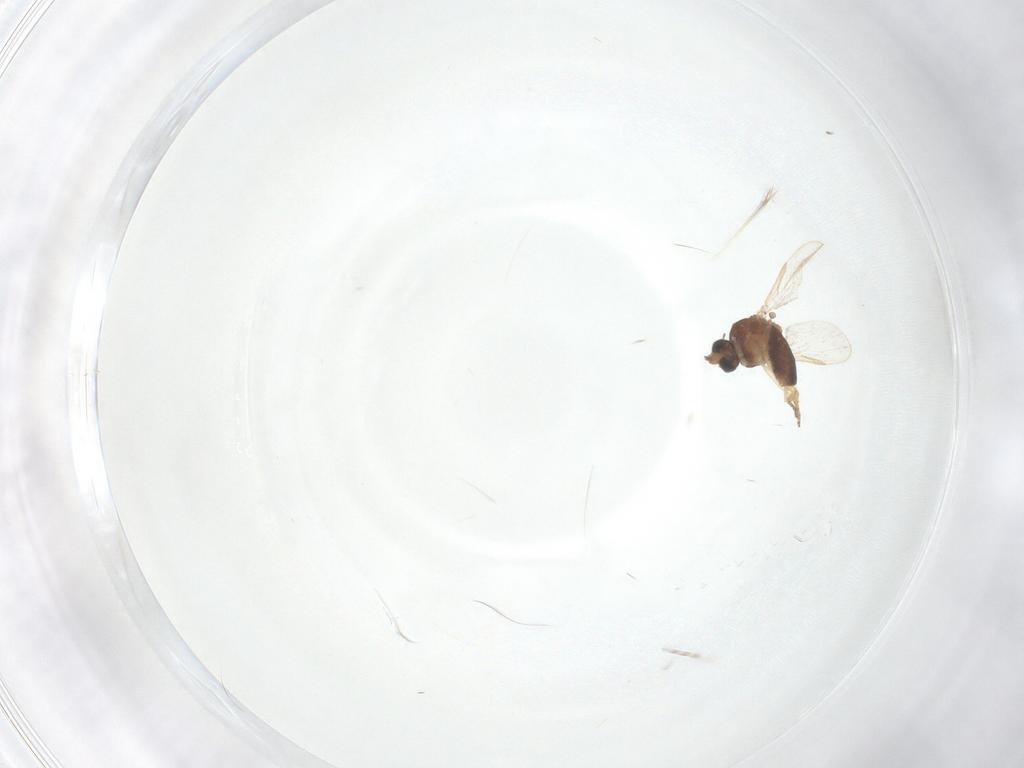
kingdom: Animalia
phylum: Arthropoda
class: Insecta
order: Diptera
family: Ceratopogonidae
